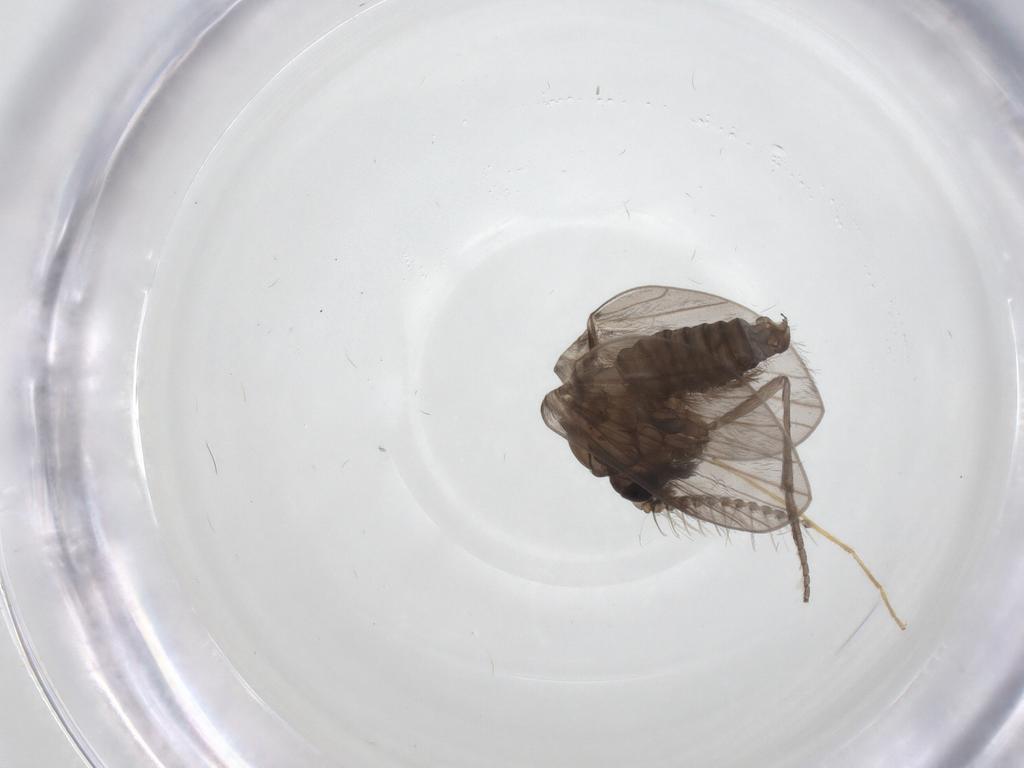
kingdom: Animalia
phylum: Arthropoda
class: Insecta
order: Diptera
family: Chironomidae
